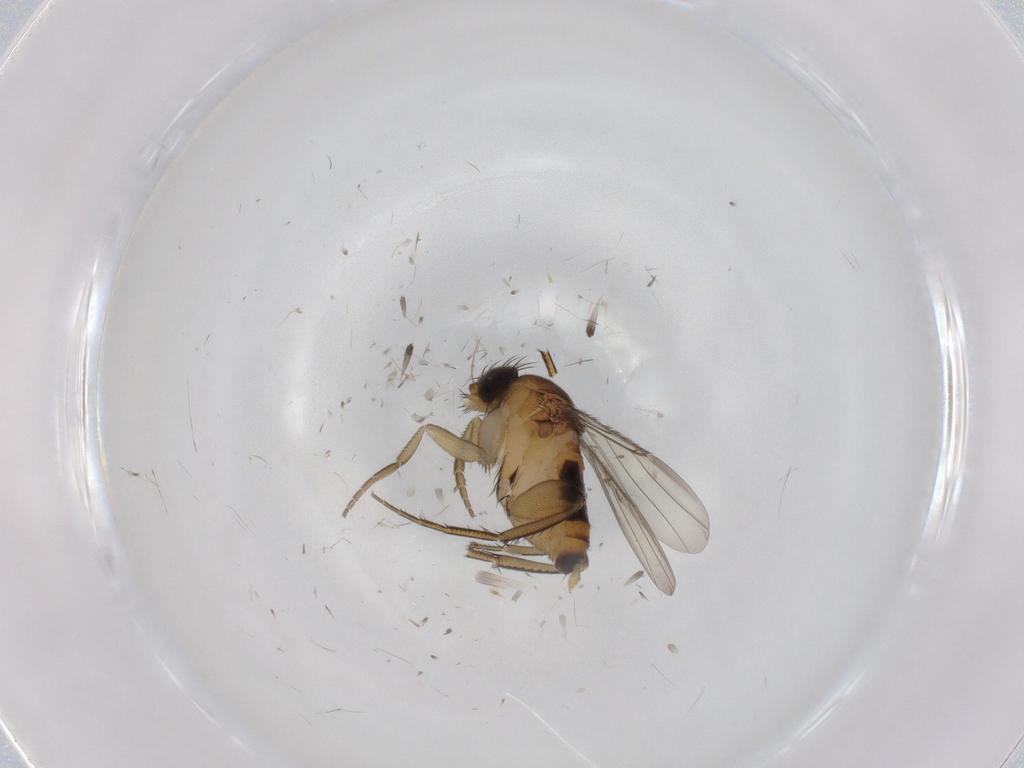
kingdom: Animalia
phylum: Arthropoda
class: Insecta
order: Diptera
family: Phoridae
